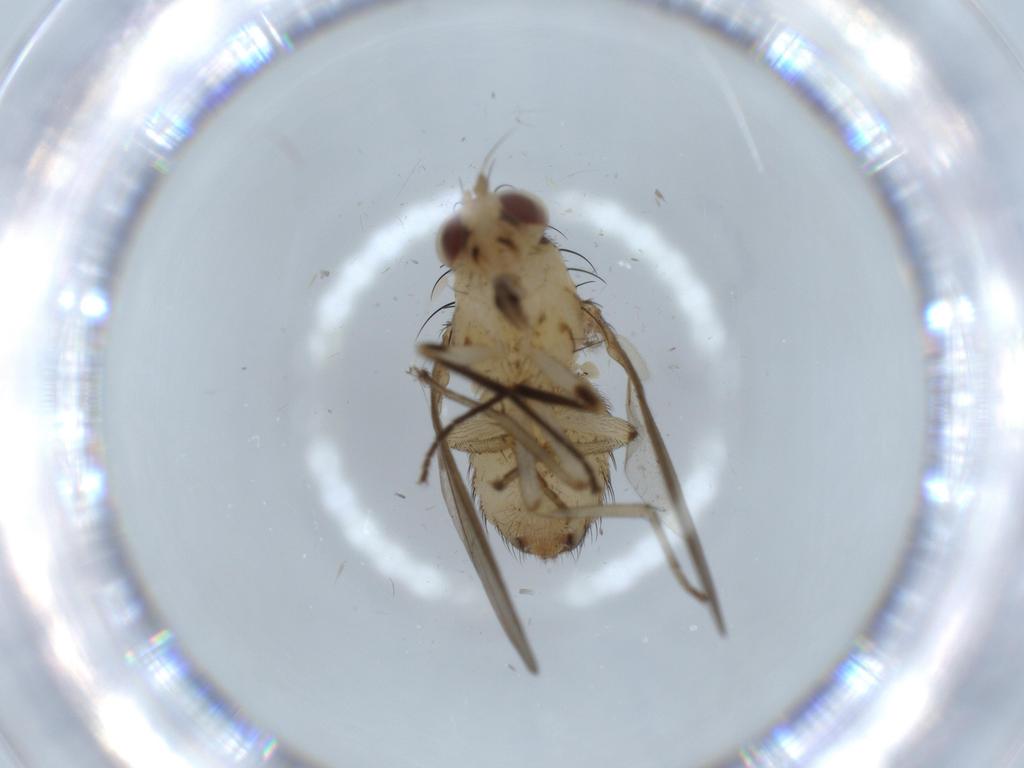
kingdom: Animalia
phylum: Arthropoda
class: Insecta
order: Diptera
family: Cecidomyiidae
